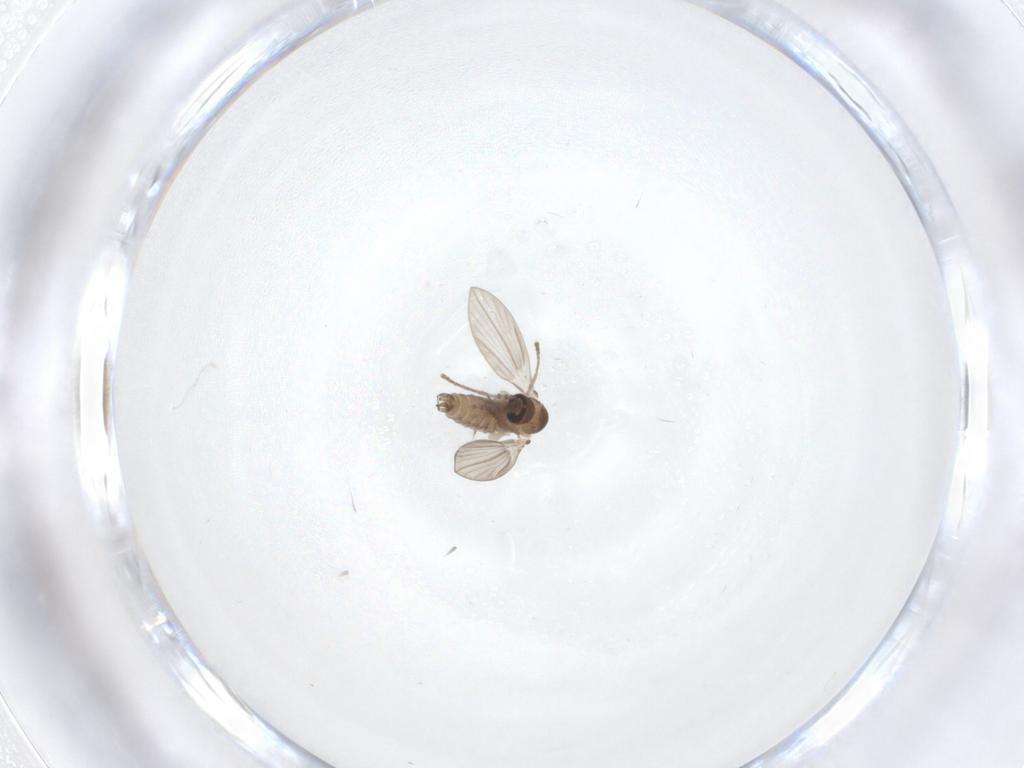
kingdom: Animalia
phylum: Arthropoda
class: Insecta
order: Diptera
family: Psychodidae
